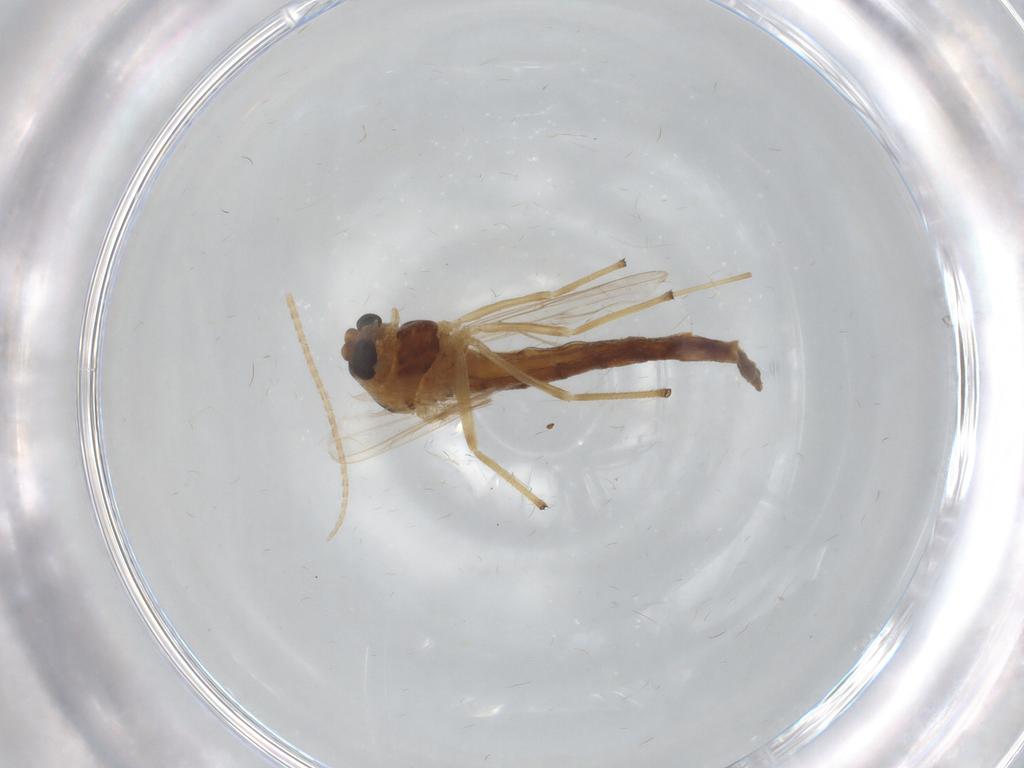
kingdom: Animalia
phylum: Arthropoda
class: Insecta
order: Diptera
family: Chironomidae
